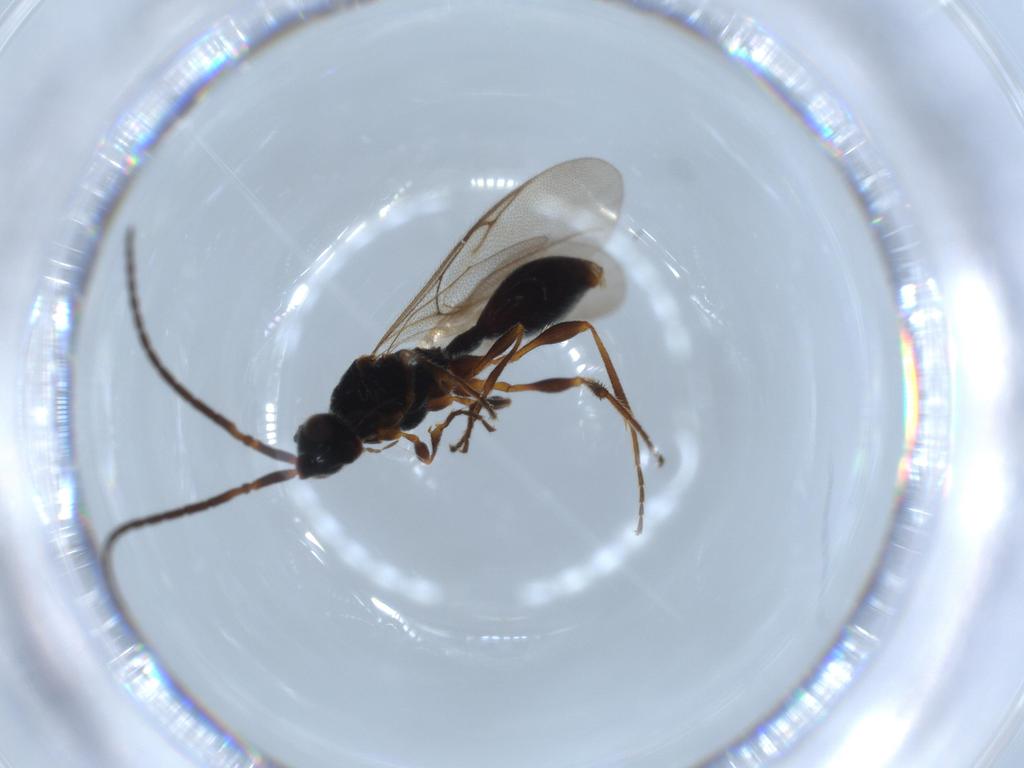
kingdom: Animalia
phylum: Arthropoda
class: Insecta
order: Hymenoptera
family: Diapriidae
